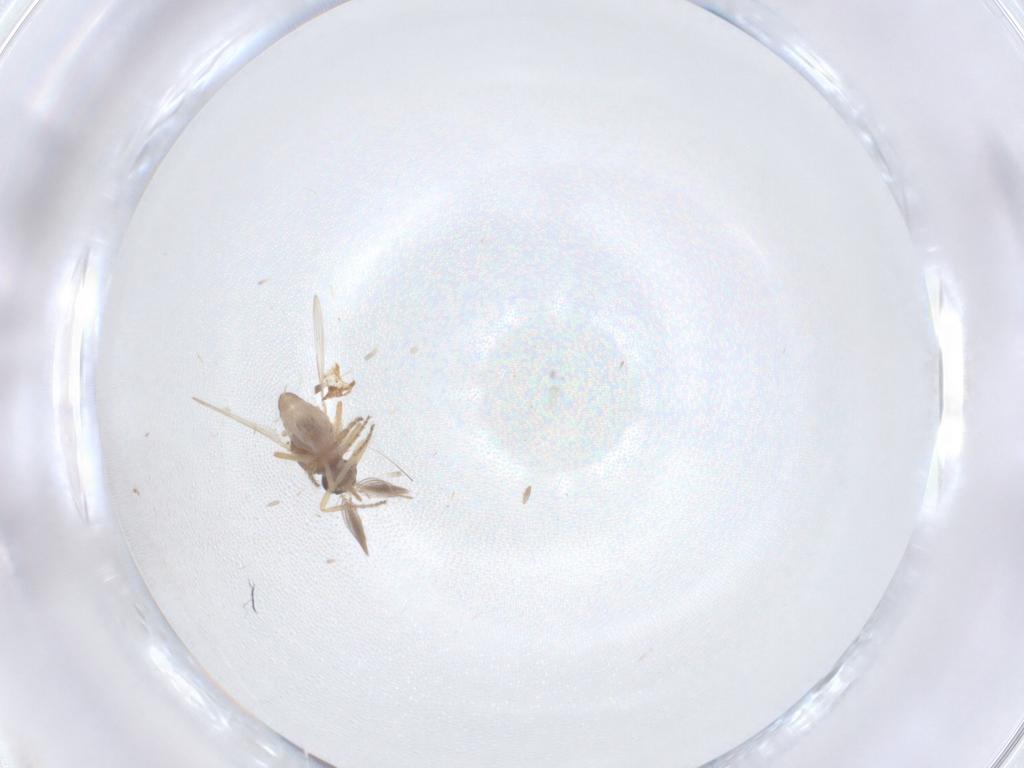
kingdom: Animalia
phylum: Arthropoda
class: Insecta
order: Diptera
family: Ceratopogonidae
